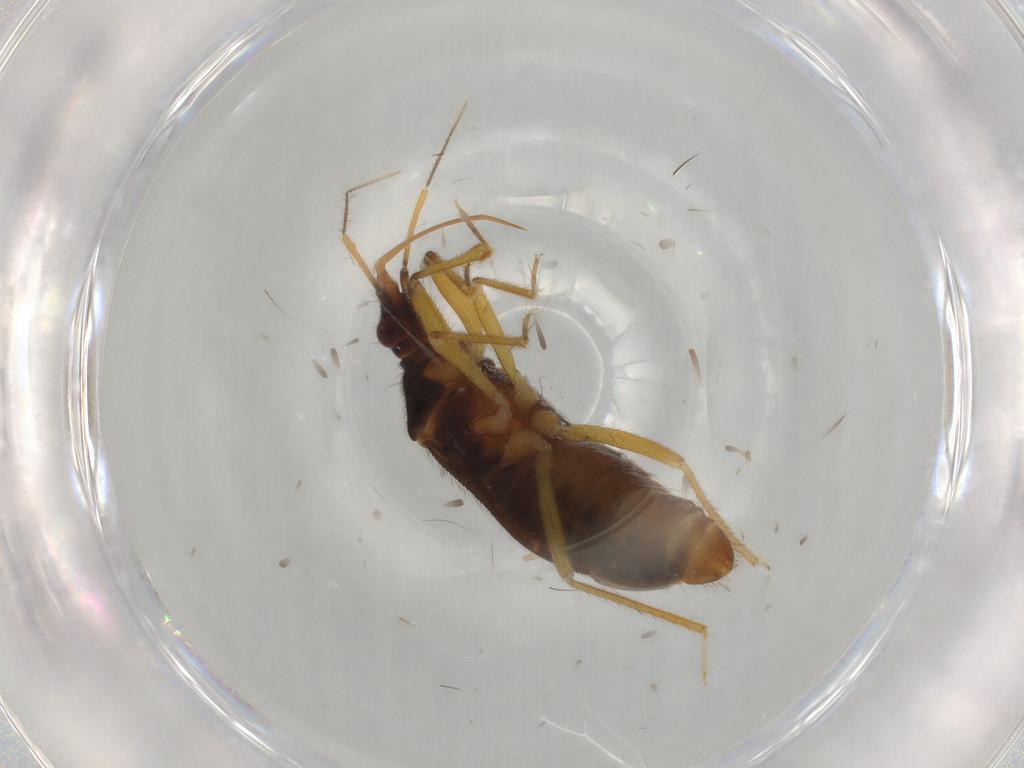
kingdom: Animalia
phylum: Arthropoda
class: Insecta
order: Hemiptera
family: Anthocoridae
